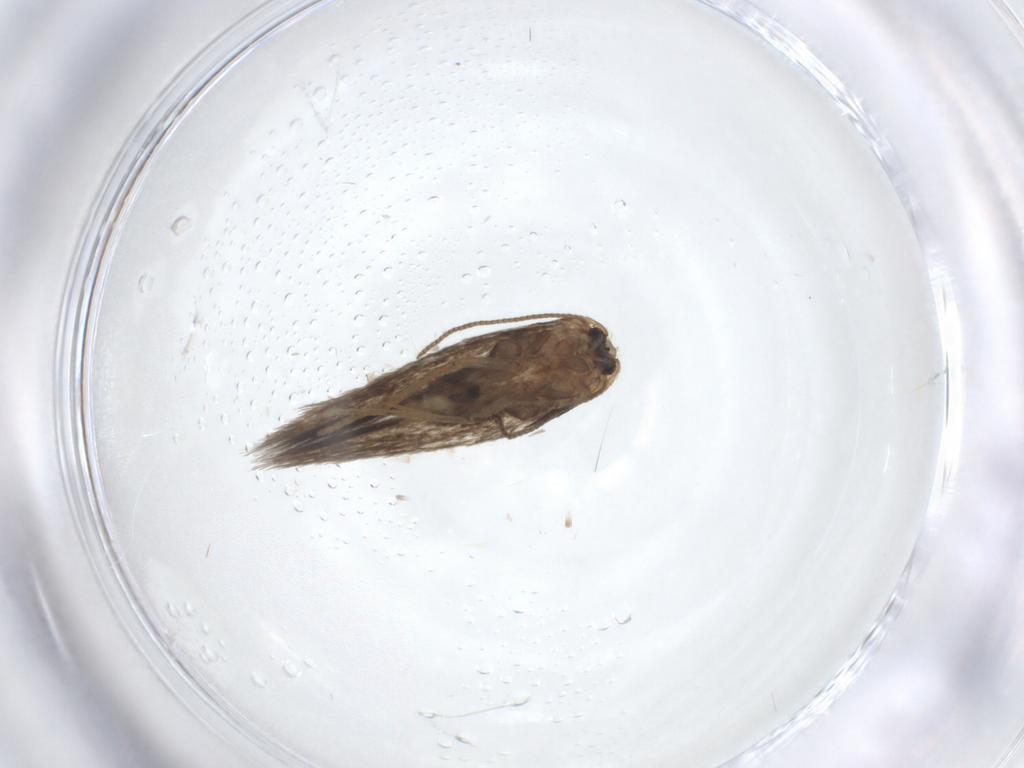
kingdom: Animalia
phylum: Arthropoda
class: Insecta
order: Lepidoptera
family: Nepticulidae
